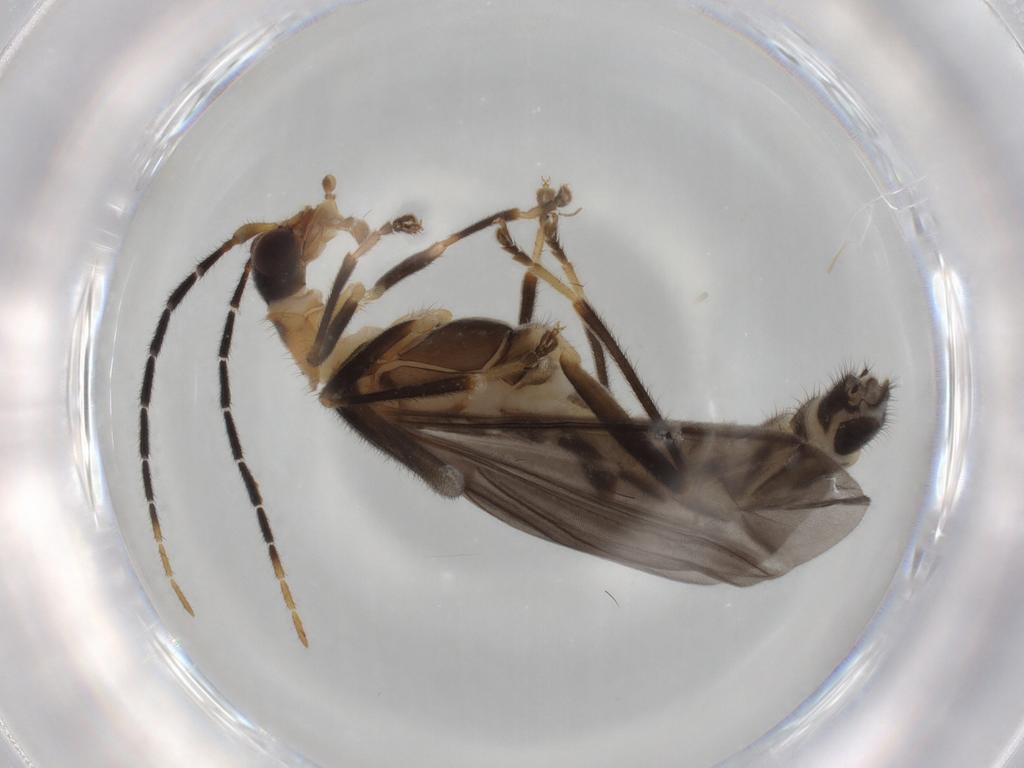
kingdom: Animalia
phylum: Arthropoda
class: Insecta
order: Coleoptera
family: Cantharidae
